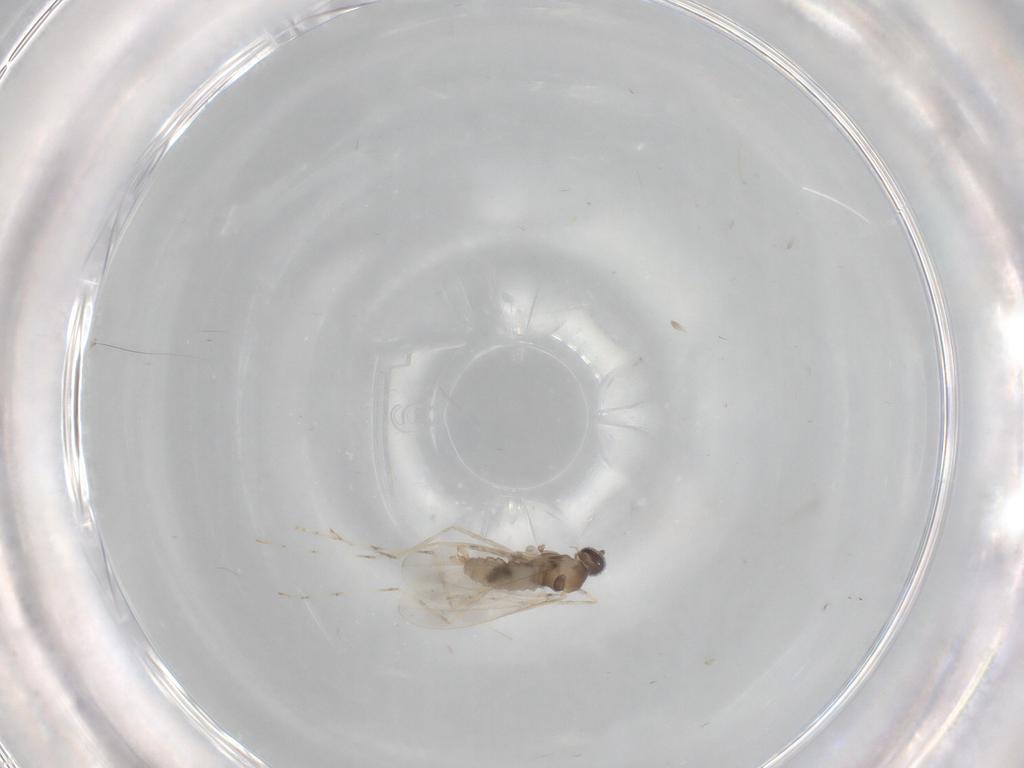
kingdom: Animalia
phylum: Arthropoda
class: Insecta
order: Diptera
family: Cecidomyiidae
